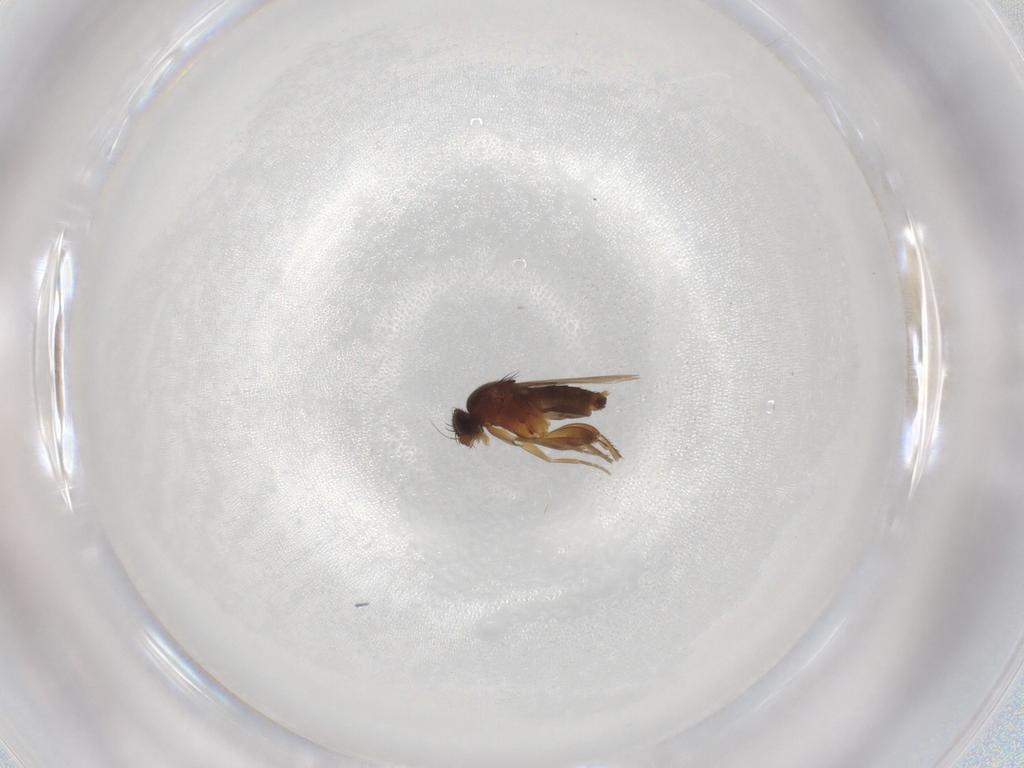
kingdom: Animalia
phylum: Arthropoda
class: Insecta
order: Diptera
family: Phoridae
